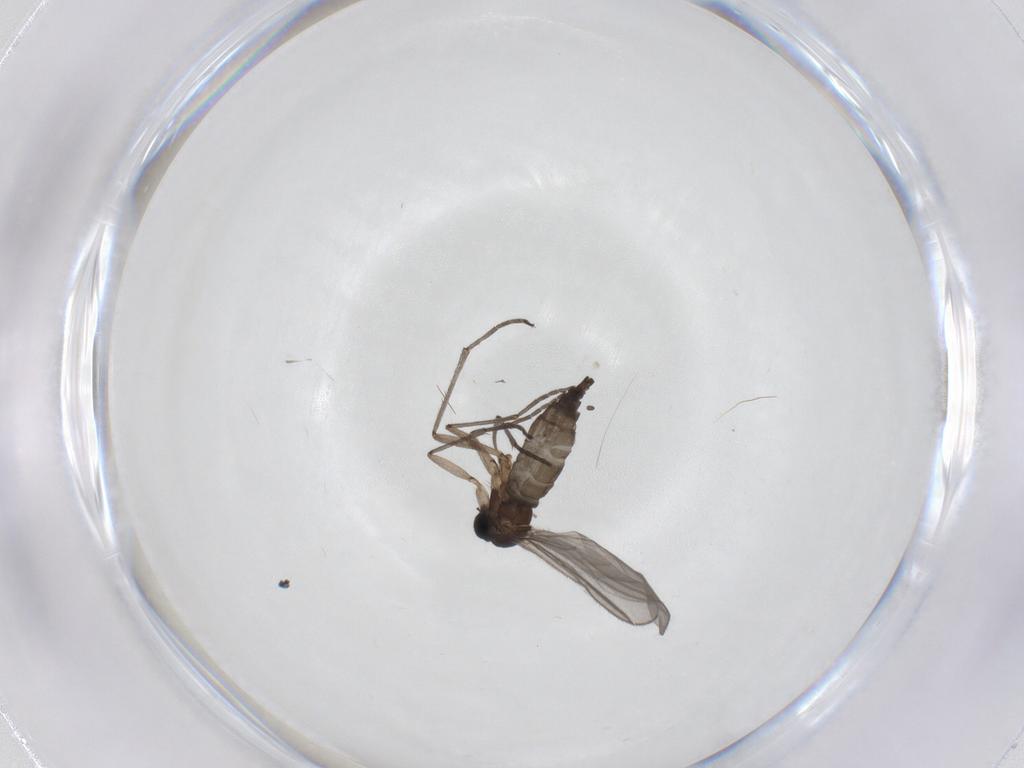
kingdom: Animalia
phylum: Arthropoda
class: Insecta
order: Diptera
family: Sciaridae
